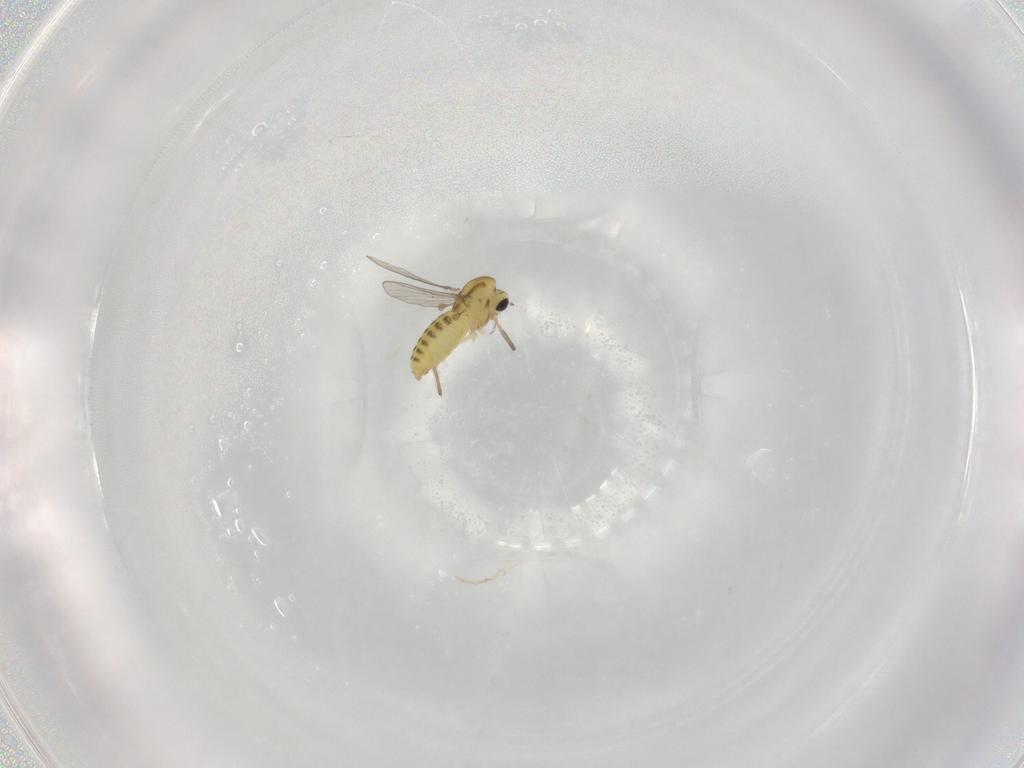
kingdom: Animalia
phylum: Arthropoda
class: Insecta
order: Diptera
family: Chironomidae
